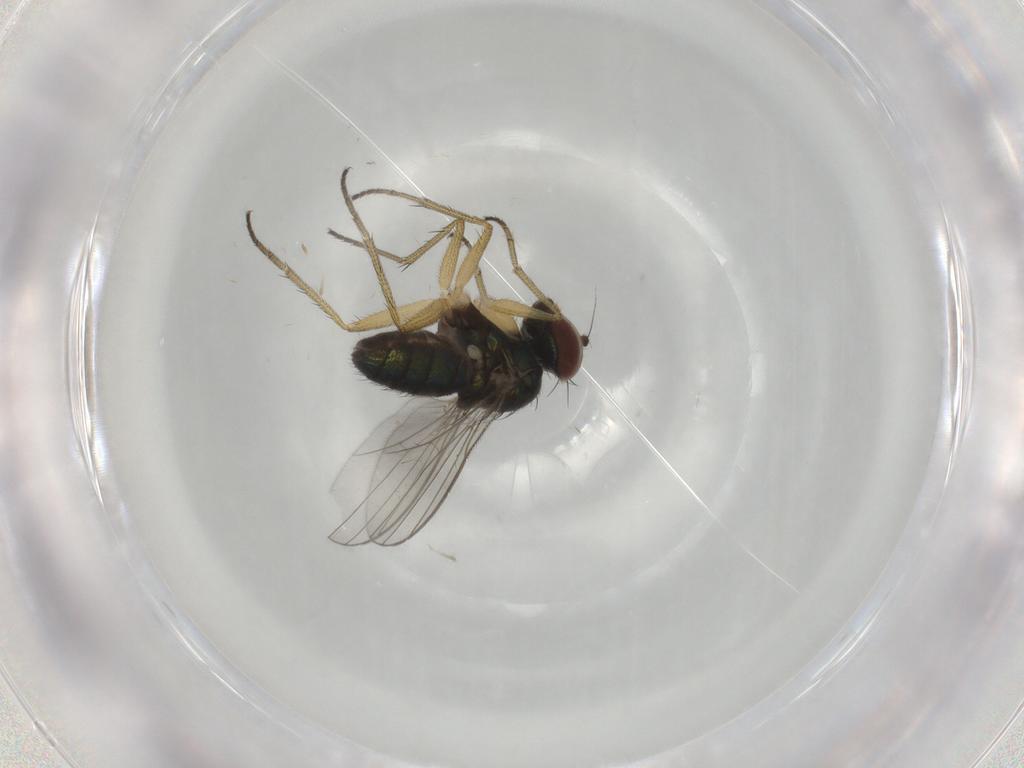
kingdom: Animalia
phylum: Arthropoda
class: Insecta
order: Diptera
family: Dolichopodidae
